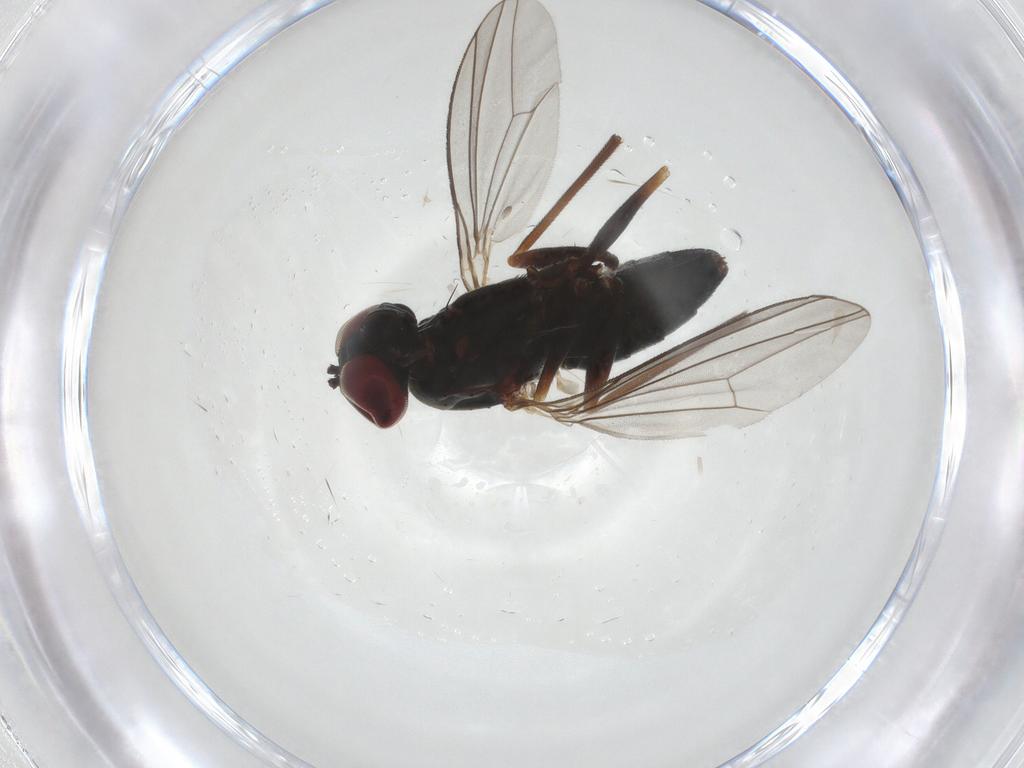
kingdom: Animalia
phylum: Arthropoda
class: Insecta
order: Diptera
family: Dolichopodidae
